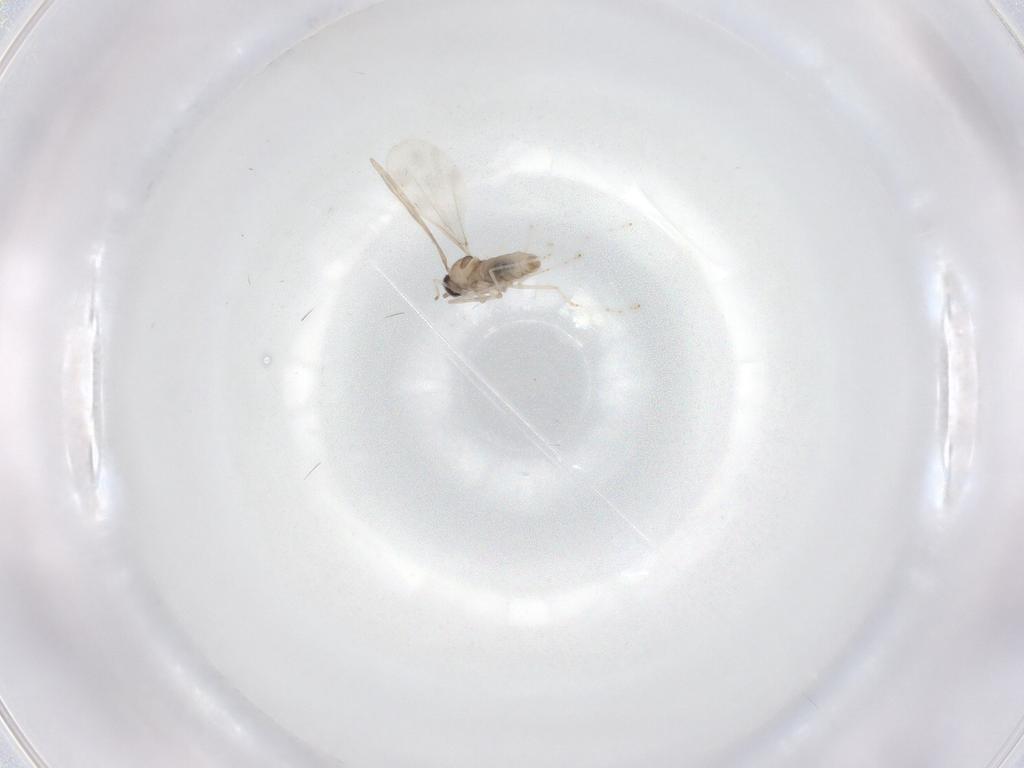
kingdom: Animalia
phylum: Arthropoda
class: Insecta
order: Diptera
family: Cecidomyiidae
